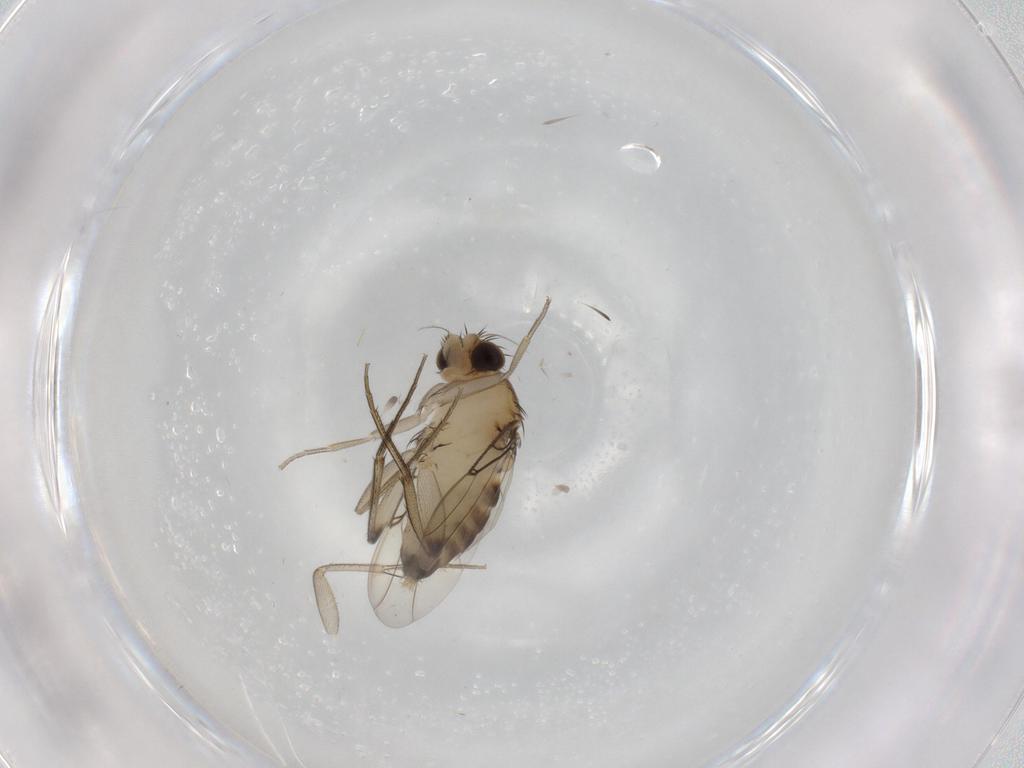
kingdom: Animalia
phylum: Arthropoda
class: Insecta
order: Diptera
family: Phoridae
